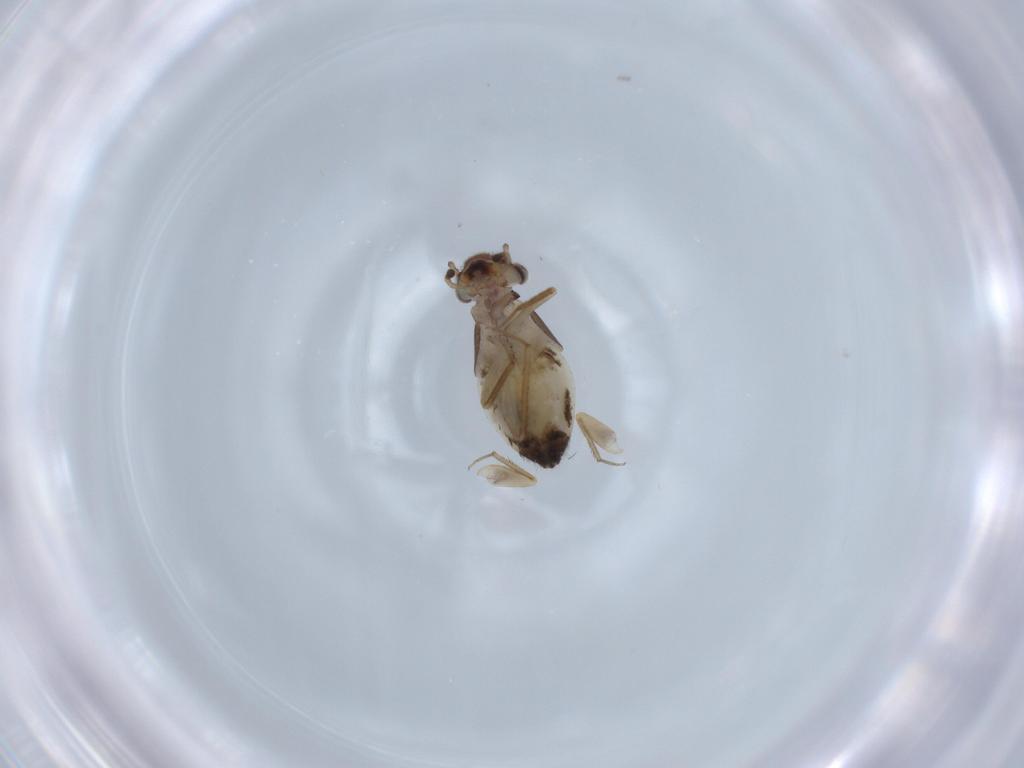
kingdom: Animalia
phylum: Arthropoda
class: Insecta
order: Psocodea
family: Lepidopsocidae
